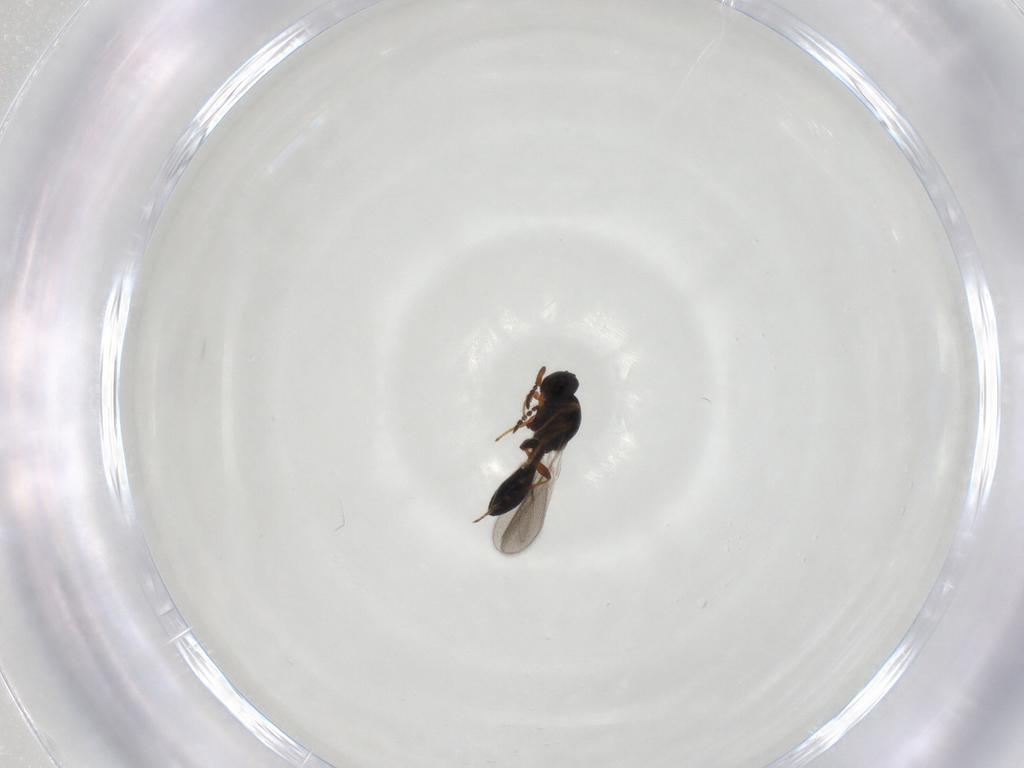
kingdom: Animalia
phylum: Arthropoda
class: Insecta
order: Hymenoptera
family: Platygastridae
